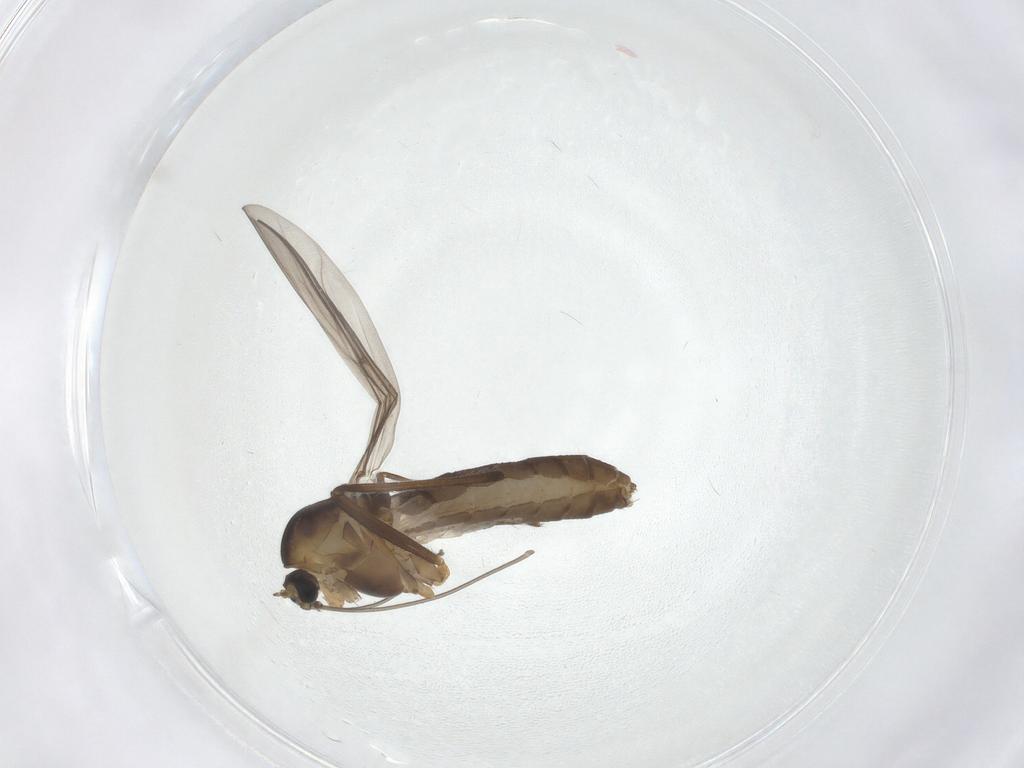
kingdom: Animalia
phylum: Arthropoda
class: Insecta
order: Diptera
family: Chironomidae
